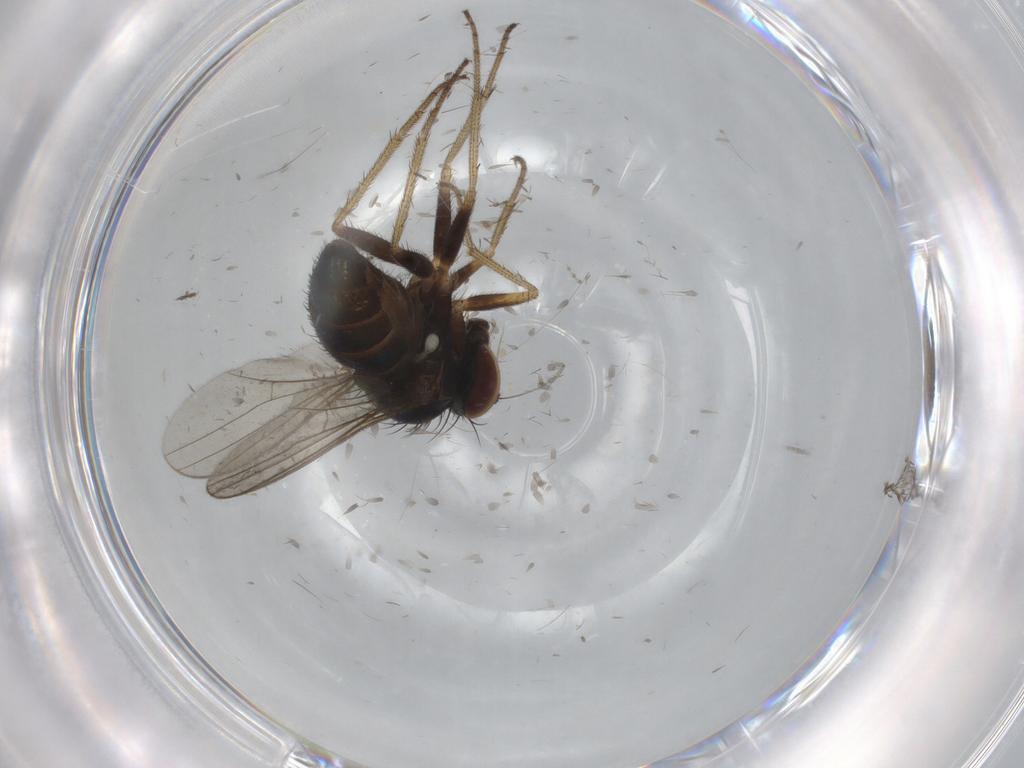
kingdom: Animalia
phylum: Arthropoda
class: Insecta
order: Diptera
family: Dolichopodidae
